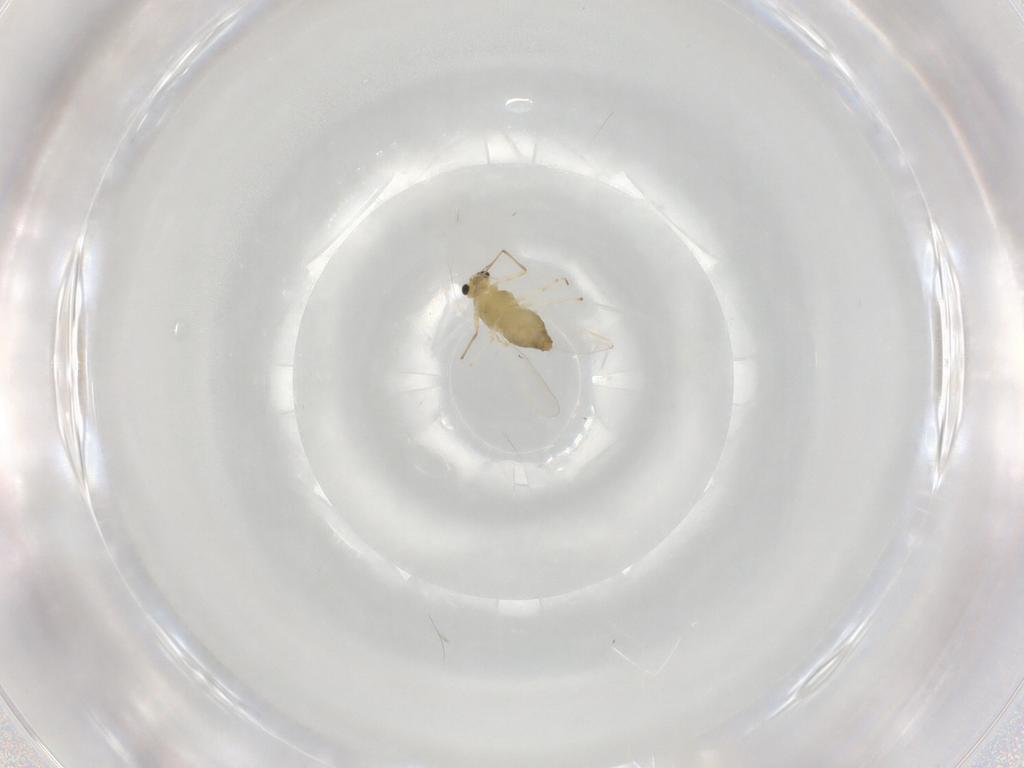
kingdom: Animalia
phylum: Arthropoda
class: Insecta
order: Diptera
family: Chironomidae
